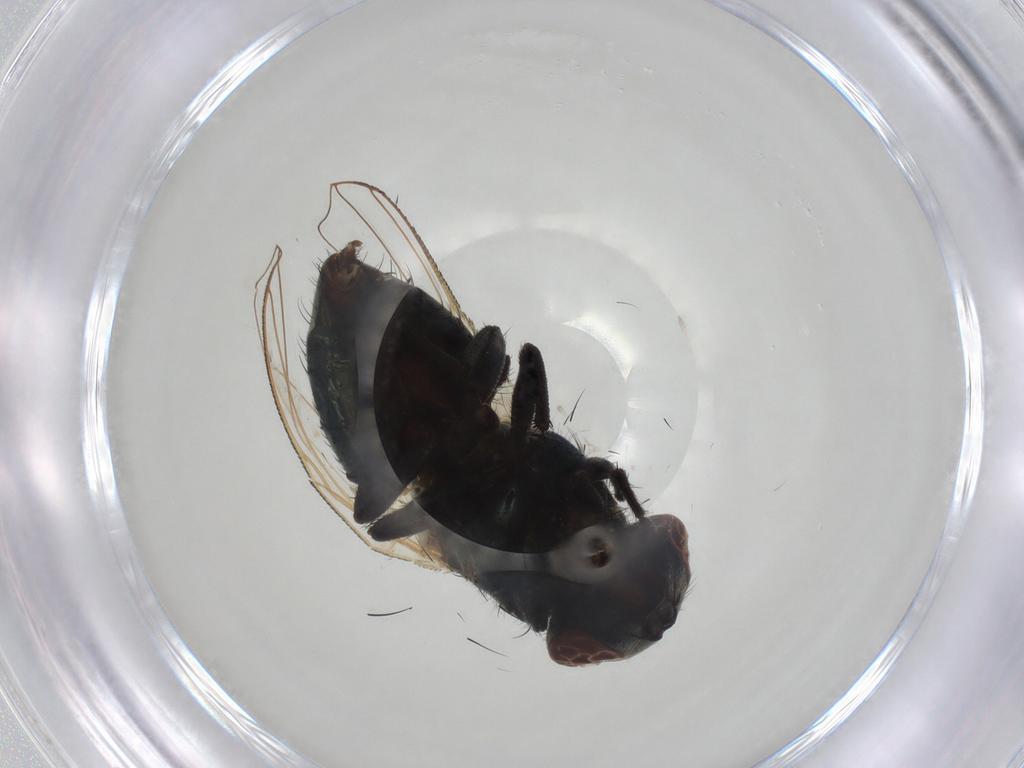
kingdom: Animalia
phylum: Arthropoda
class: Insecta
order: Diptera
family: Muscidae
